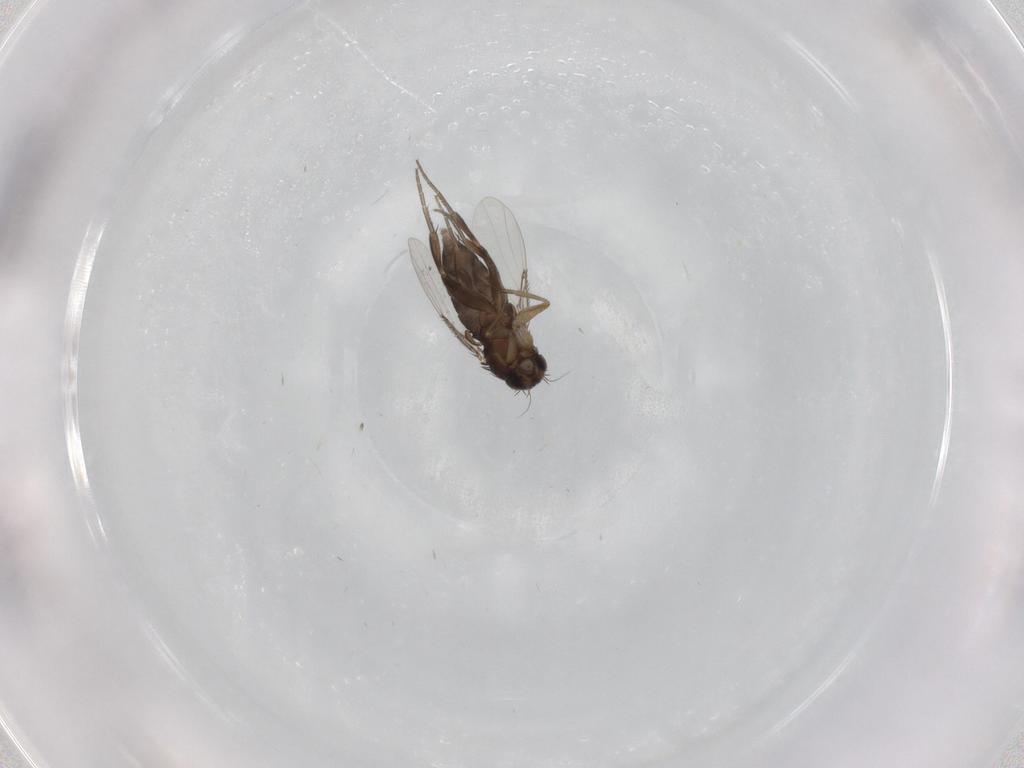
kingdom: Animalia
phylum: Arthropoda
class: Insecta
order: Diptera
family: Phoridae
